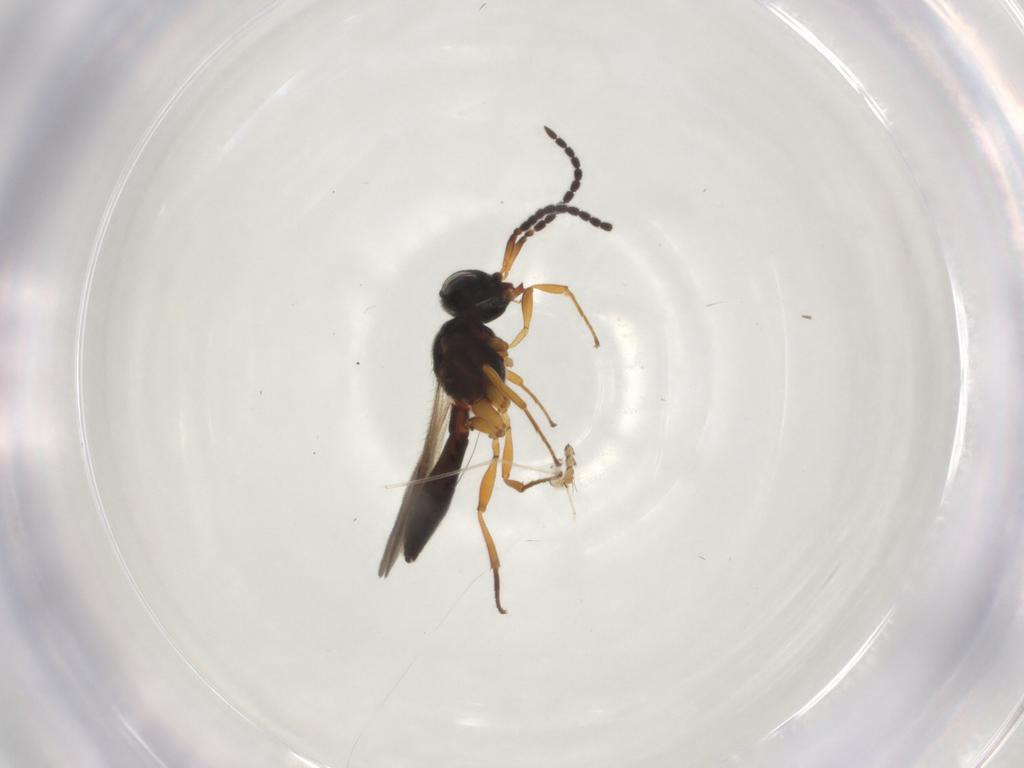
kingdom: Animalia
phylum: Arthropoda
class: Insecta
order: Hymenoptera
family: Scelionidae
